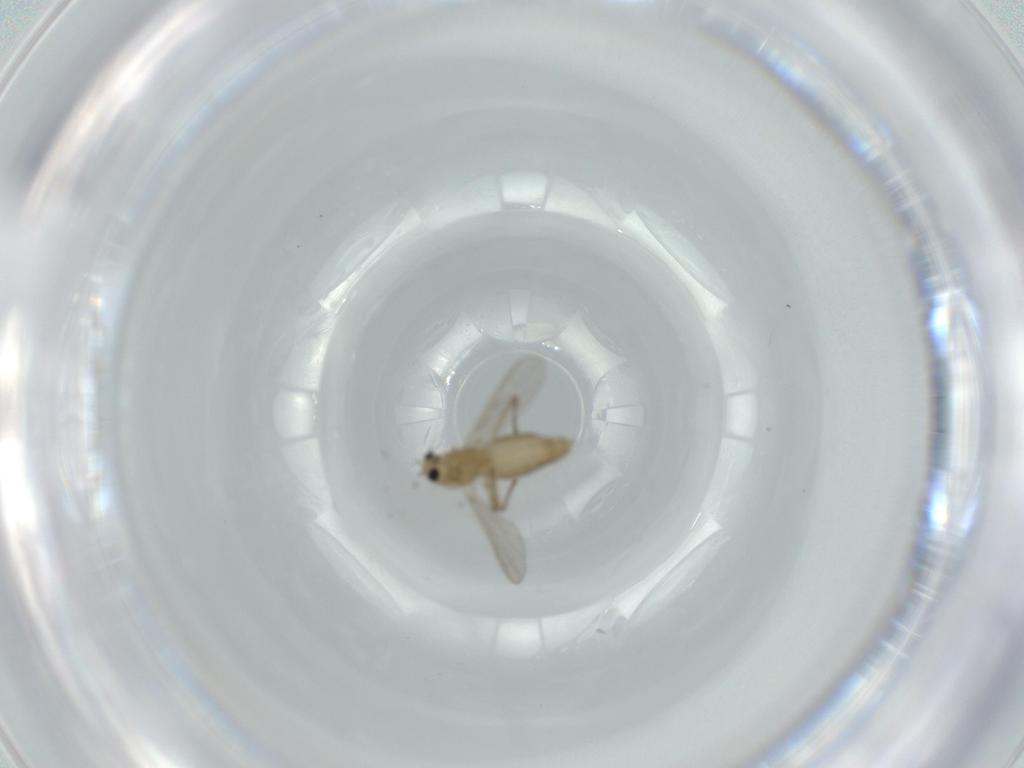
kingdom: Animalia
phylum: Arthropoda
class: Insecta
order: Diptera
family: Chironomidae
